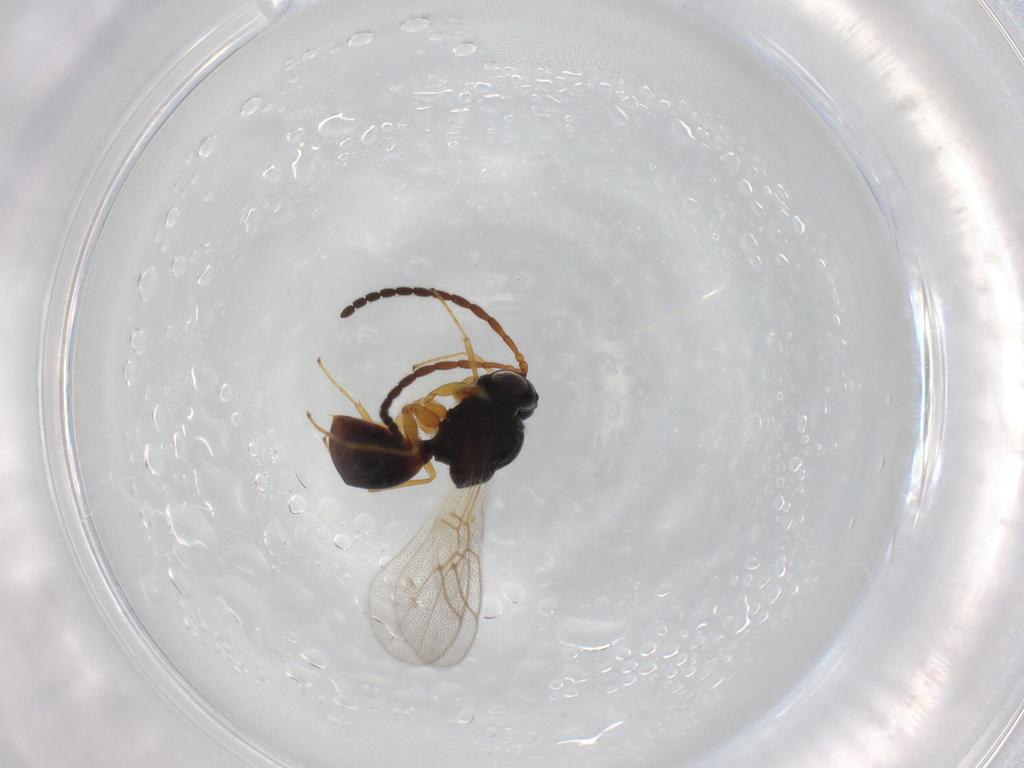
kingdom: Animalia
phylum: Arthropoda
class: Insecta
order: Hymenoptera
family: Figitidae
